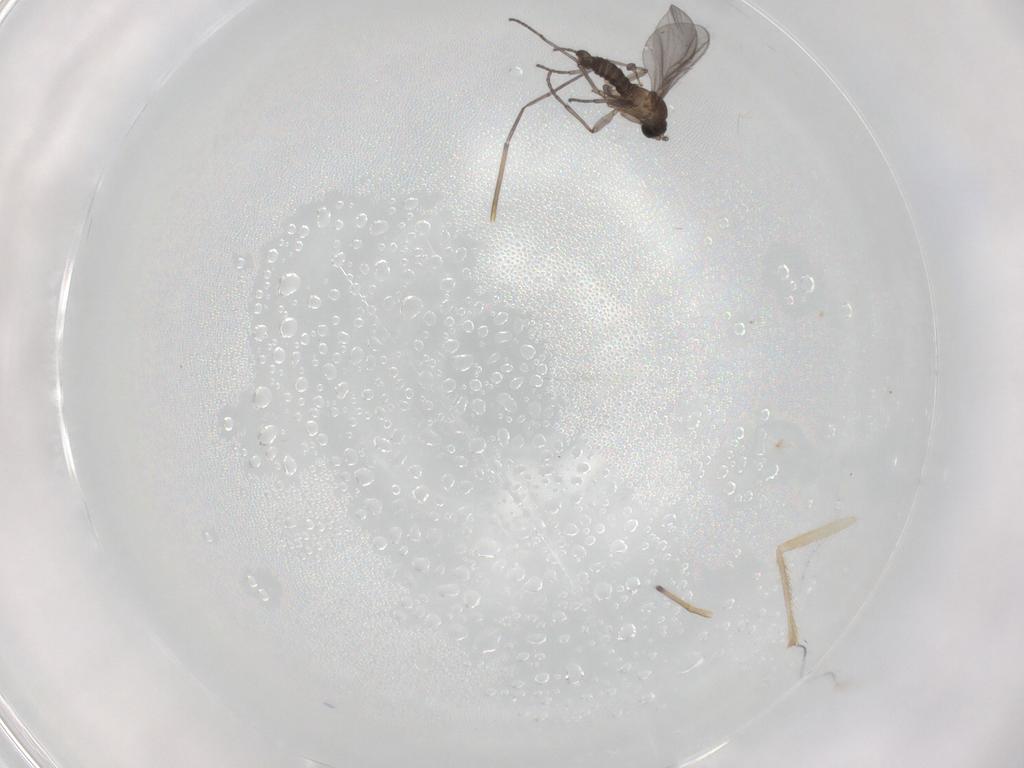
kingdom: Animalia
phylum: Arthropoda
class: Insecta
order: Diptera
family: Sciaridae
